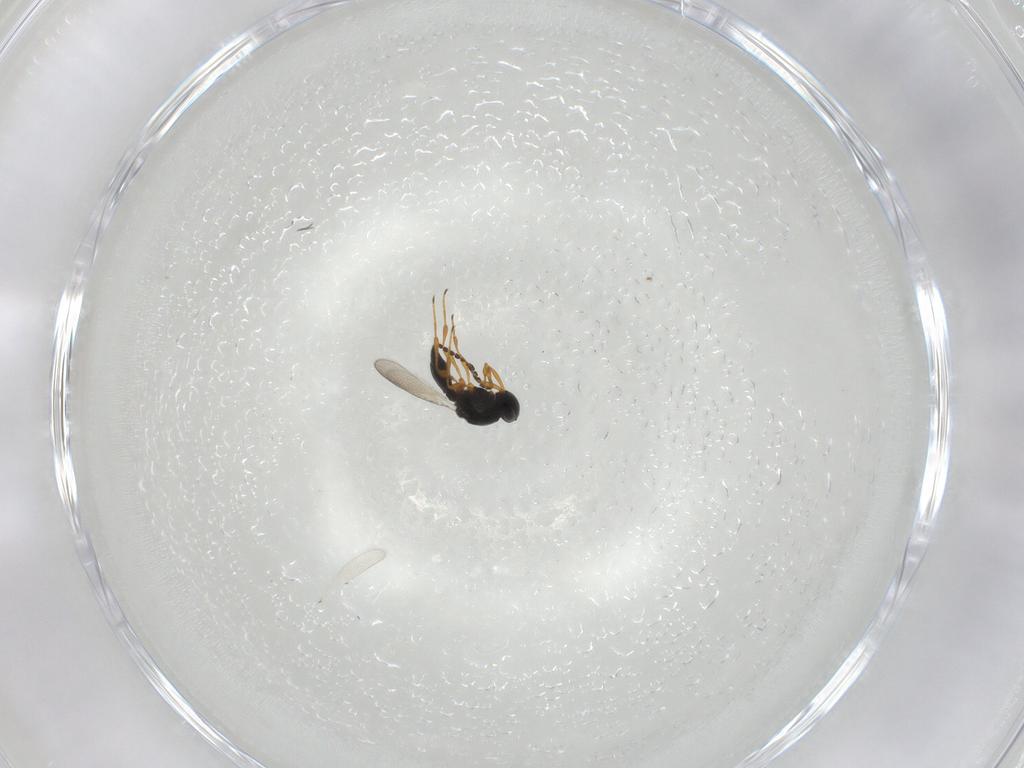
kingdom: Animalia
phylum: Arthropoda
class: Insecta
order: Hymenoptera
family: Platygastridae
